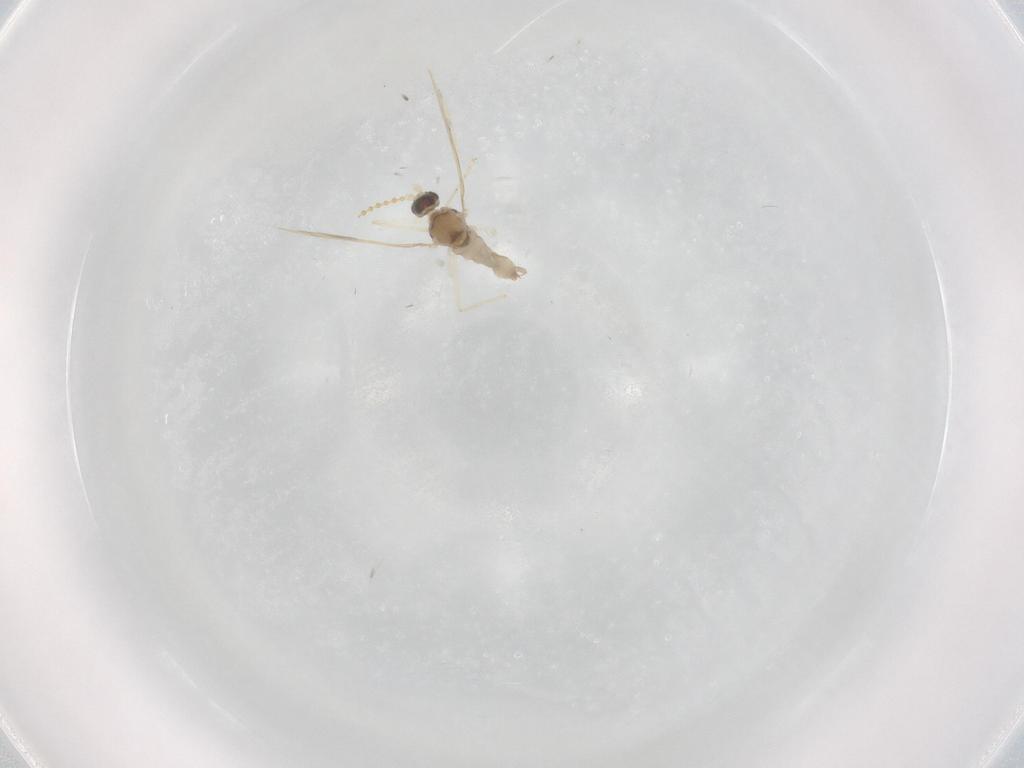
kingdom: Animalia
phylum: Arthropoda
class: Insecta
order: Diptera
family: Cecidomyiidae
